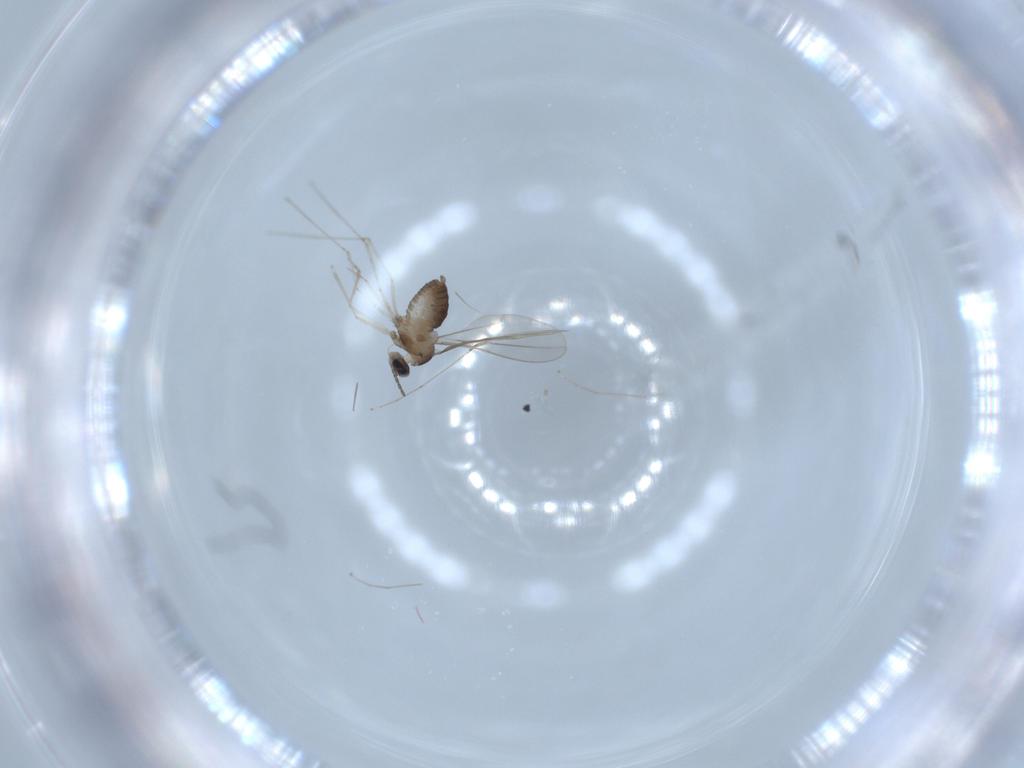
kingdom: Animalia
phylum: Arthropoda
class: Insecta
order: Diptera
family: Cecidomyiidae
